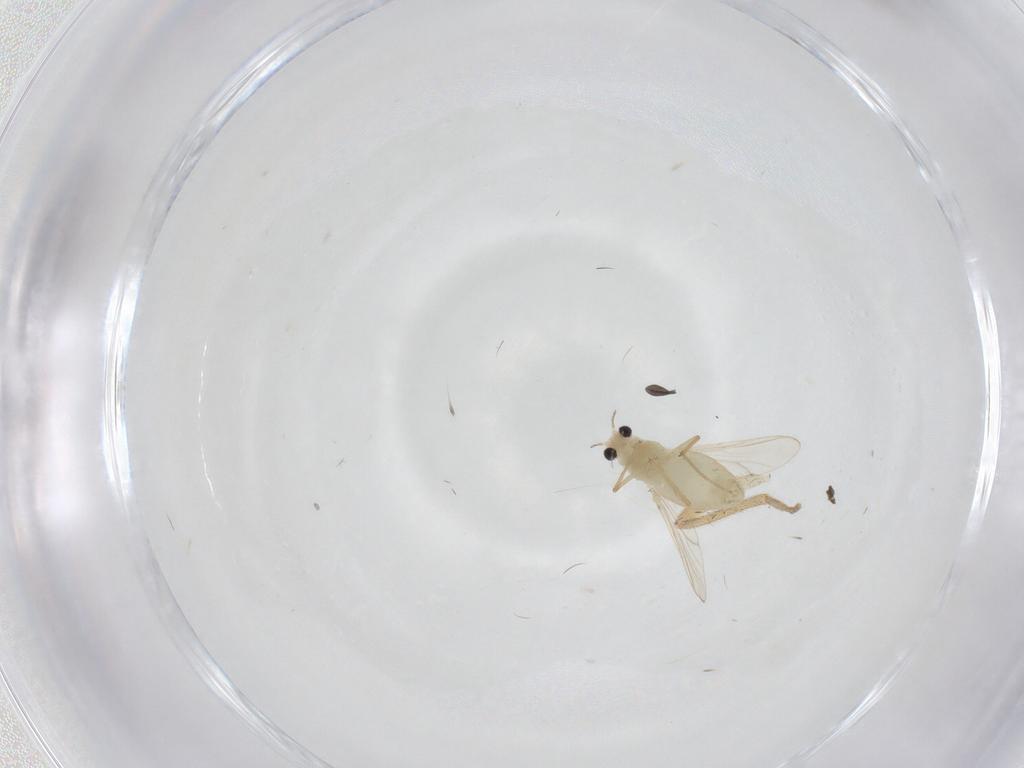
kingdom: Animalia
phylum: Arthropoda
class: Insecta
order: Diptera
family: Chironomidae
